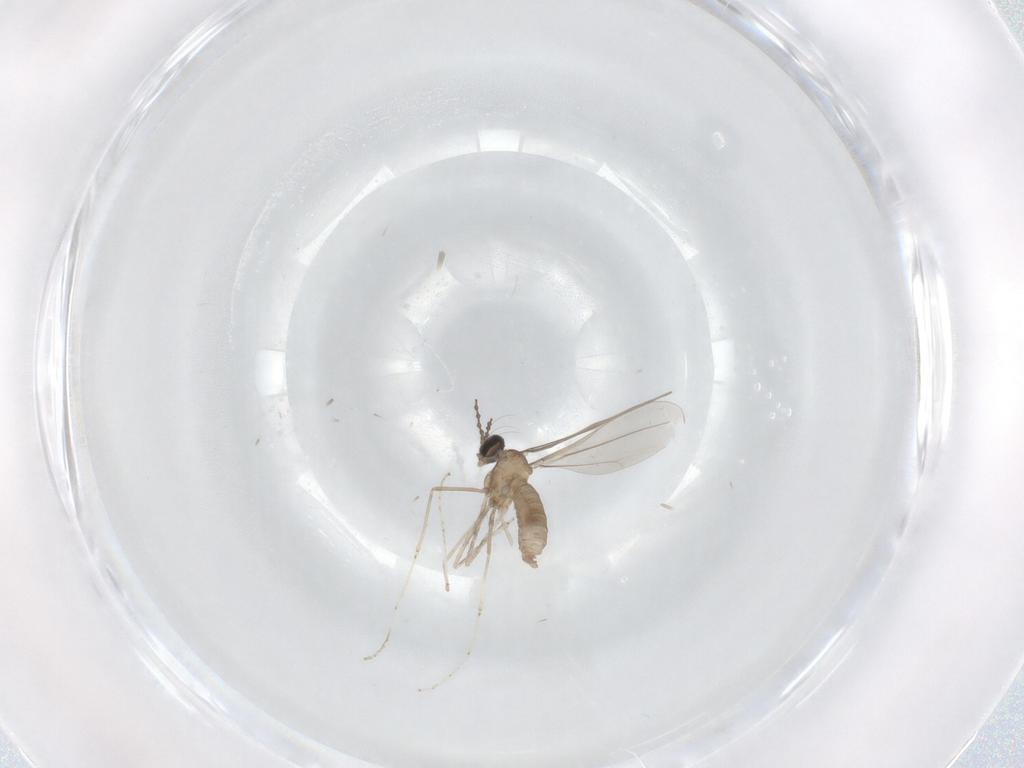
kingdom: Animalia
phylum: Arthropoda
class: Insecta
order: Diptera
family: Cecidomyiidae
